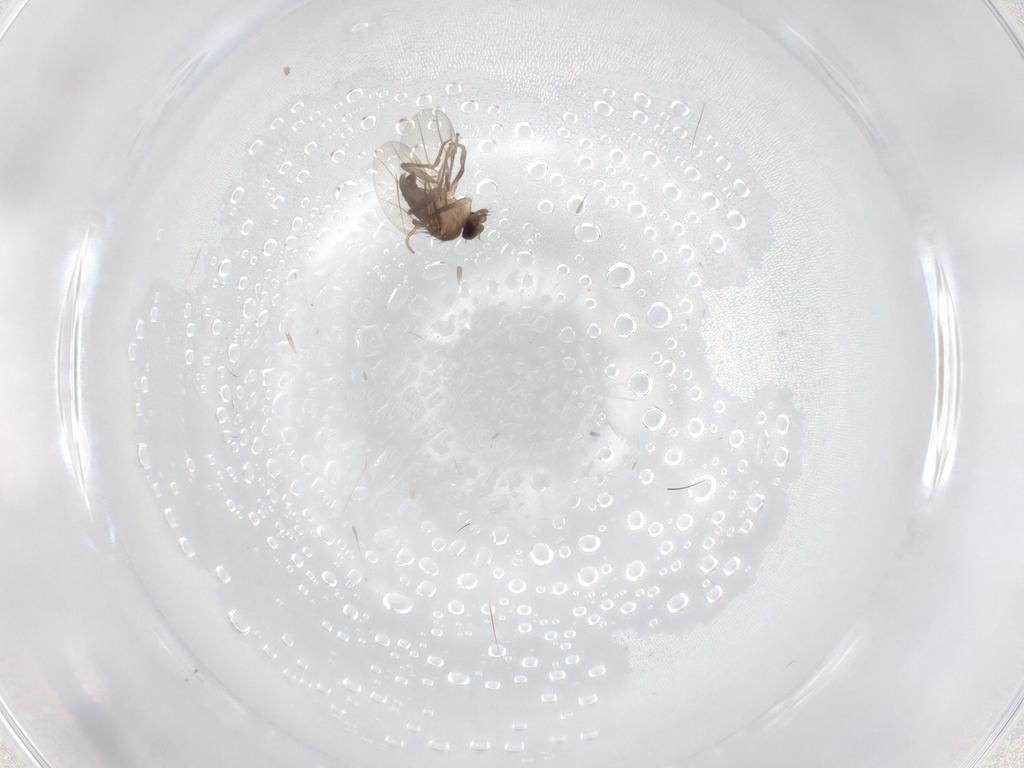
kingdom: Animalia
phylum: Arthropoda
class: Insecta
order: Diptera
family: Phoridae
